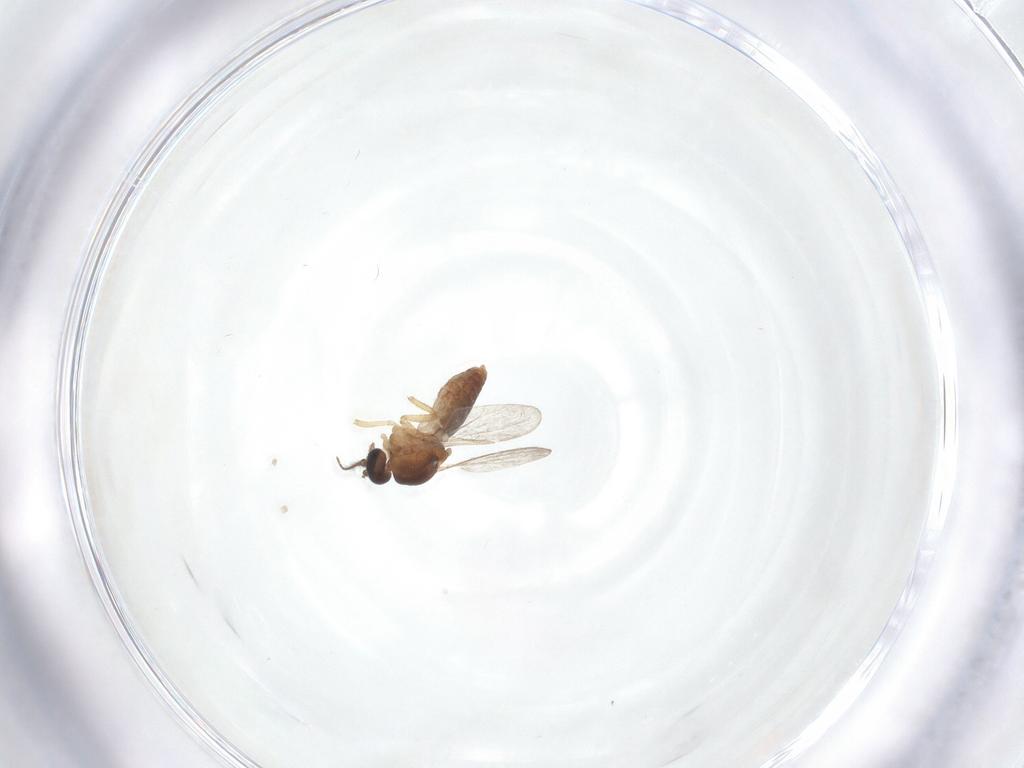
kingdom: Animalia
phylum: Arthropoda
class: Insecta
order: Diptera
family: Ceratopogonidae
